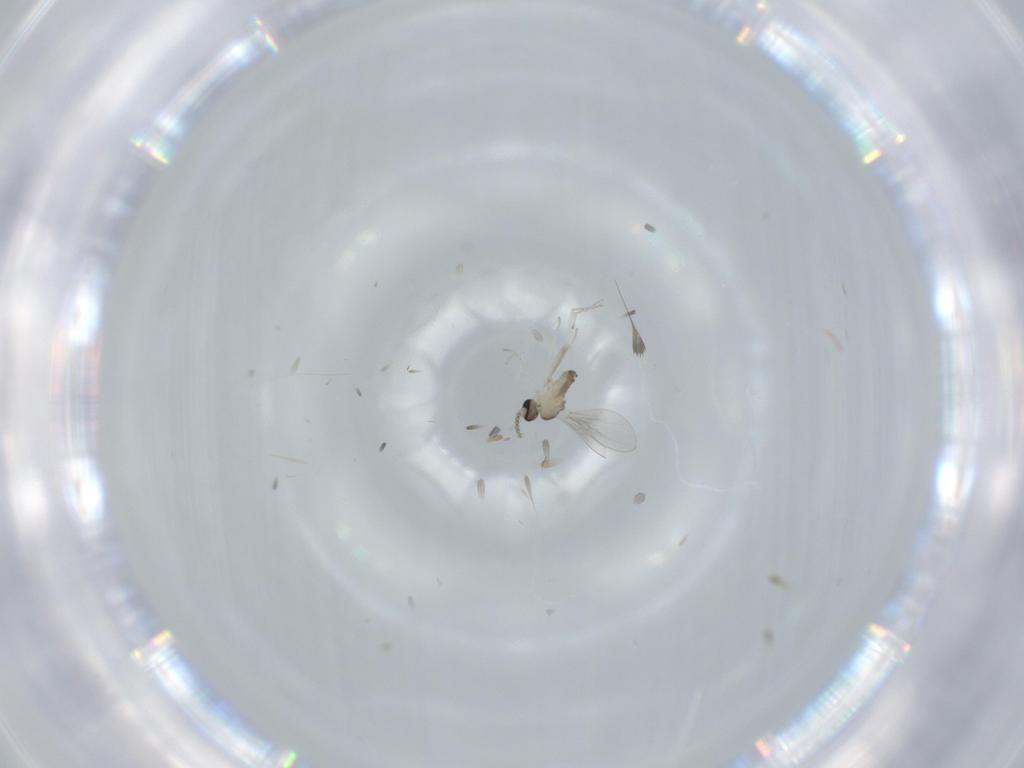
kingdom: Animalia
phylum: Arthropoda
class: Insecta
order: Diptera
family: Cecidomyiidae
